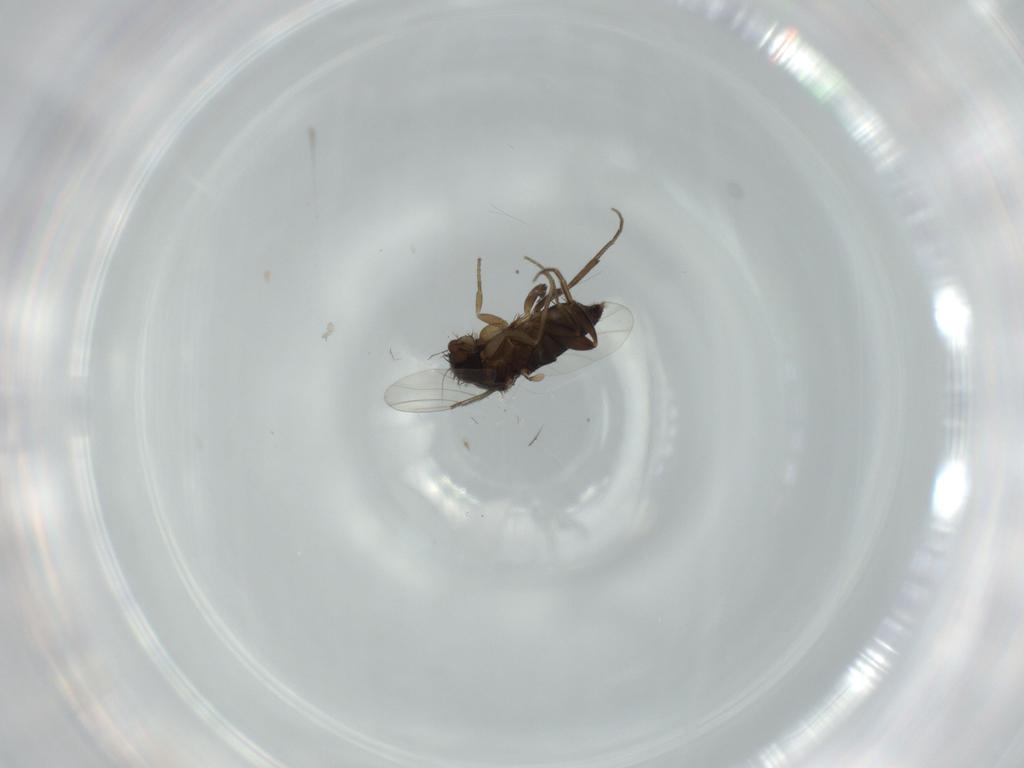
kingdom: Animalia
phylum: Arthropoda
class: Insecta
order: Diptera
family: Phoridae
